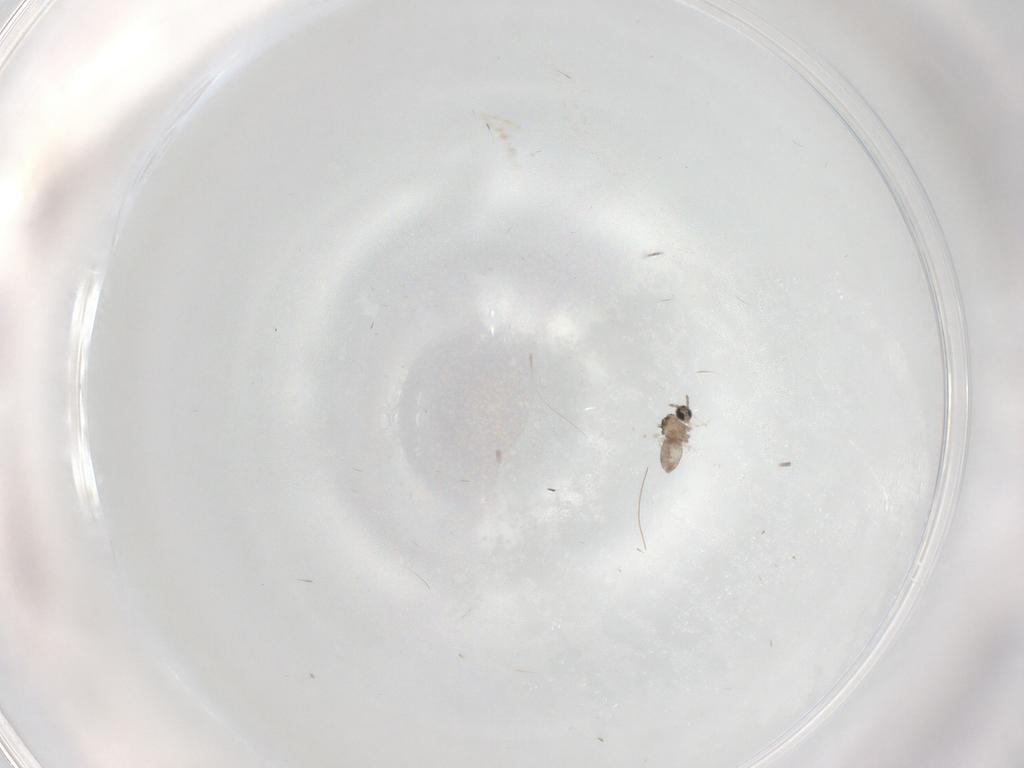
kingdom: Animalia
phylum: Arthropoda
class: Insecta
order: Diptera
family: Cecidomyiidae
